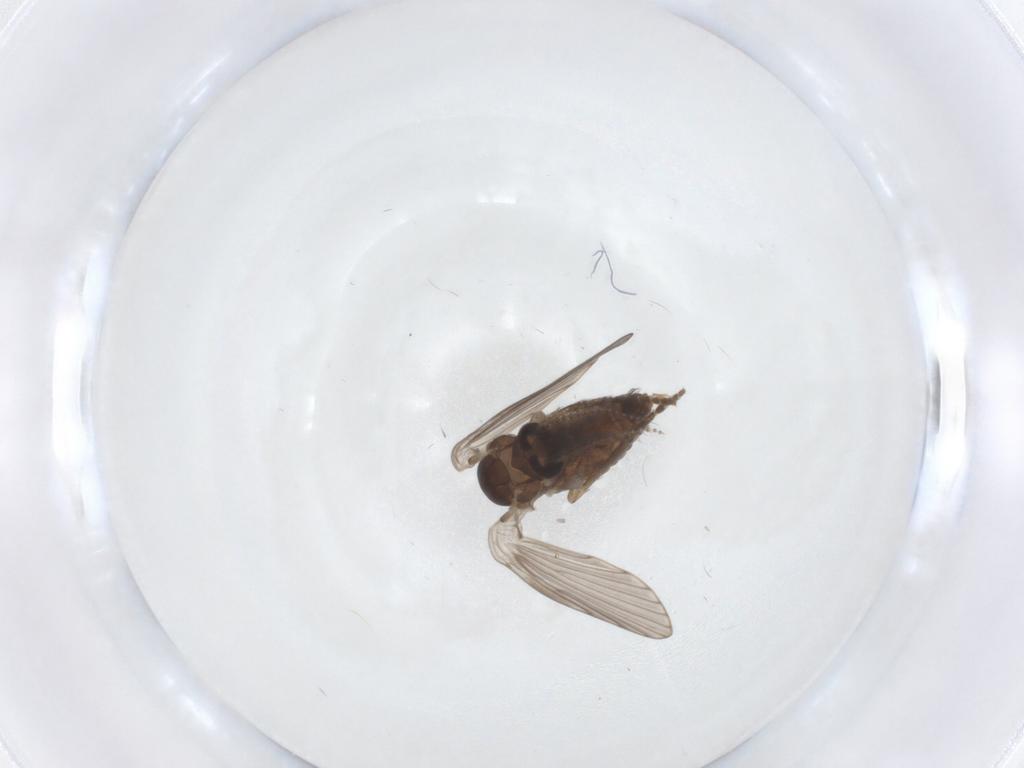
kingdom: Animalia
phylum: Arthropoda
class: Insecta
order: Diptera
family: Psychodidae
